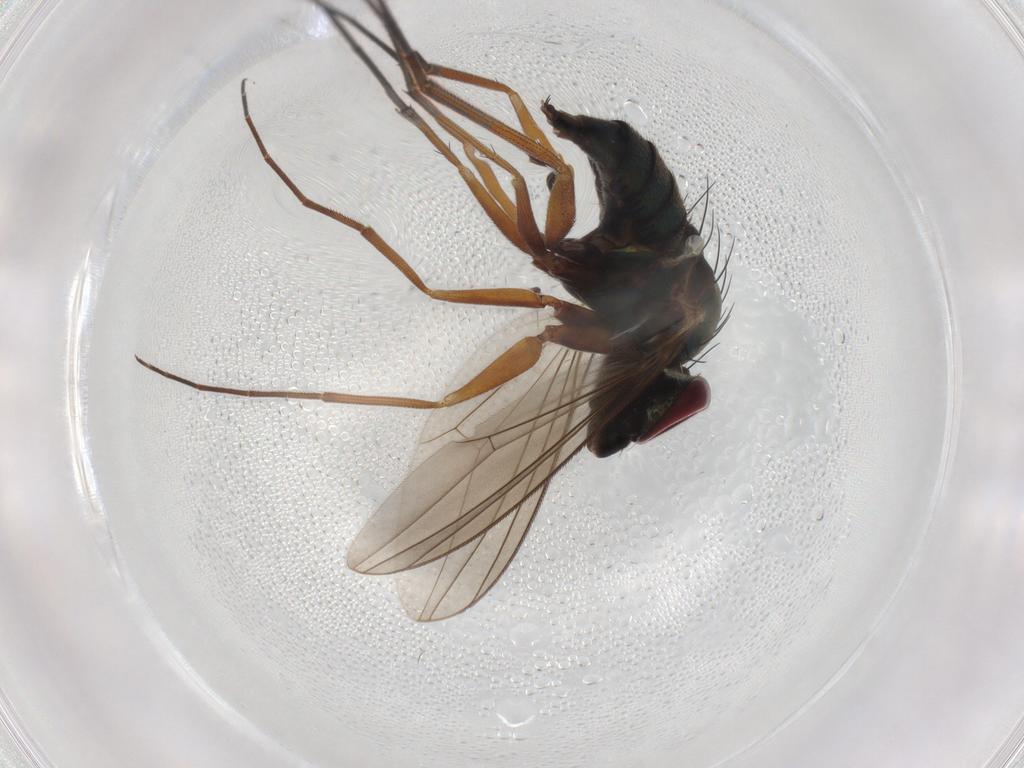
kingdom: Animalia
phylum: Arthropoda
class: Insecta
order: Diptera
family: Dolichopodidae
